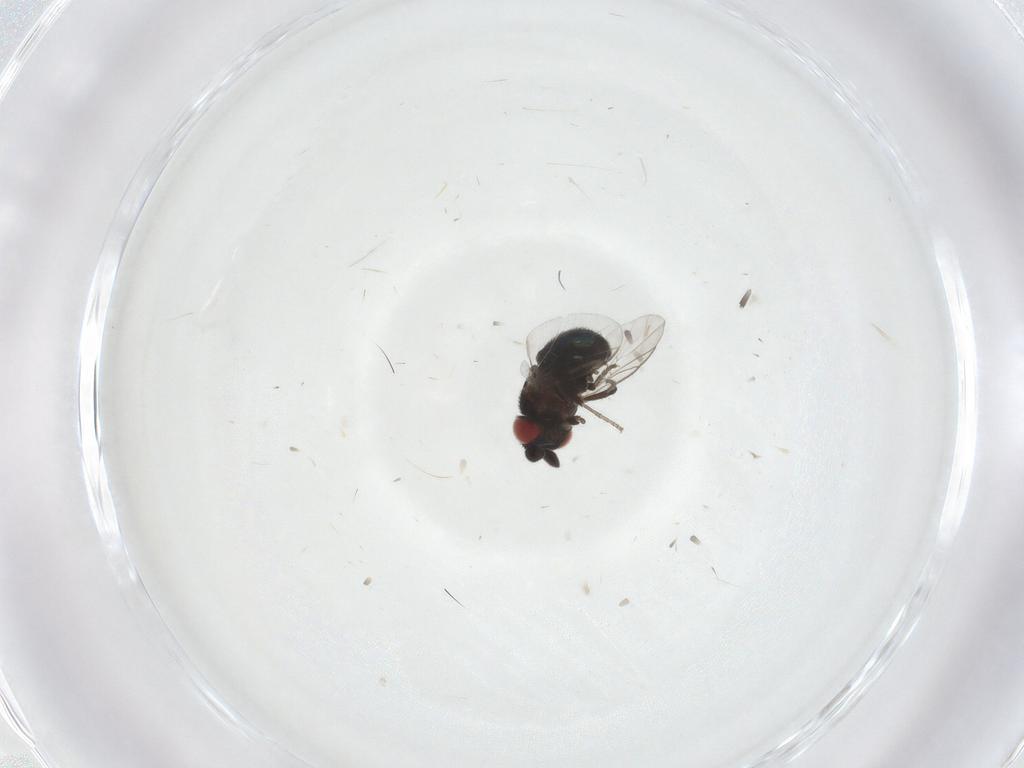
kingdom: Animalia
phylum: Arthropoda
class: Insecta
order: Diptera
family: Cryptochetidae
